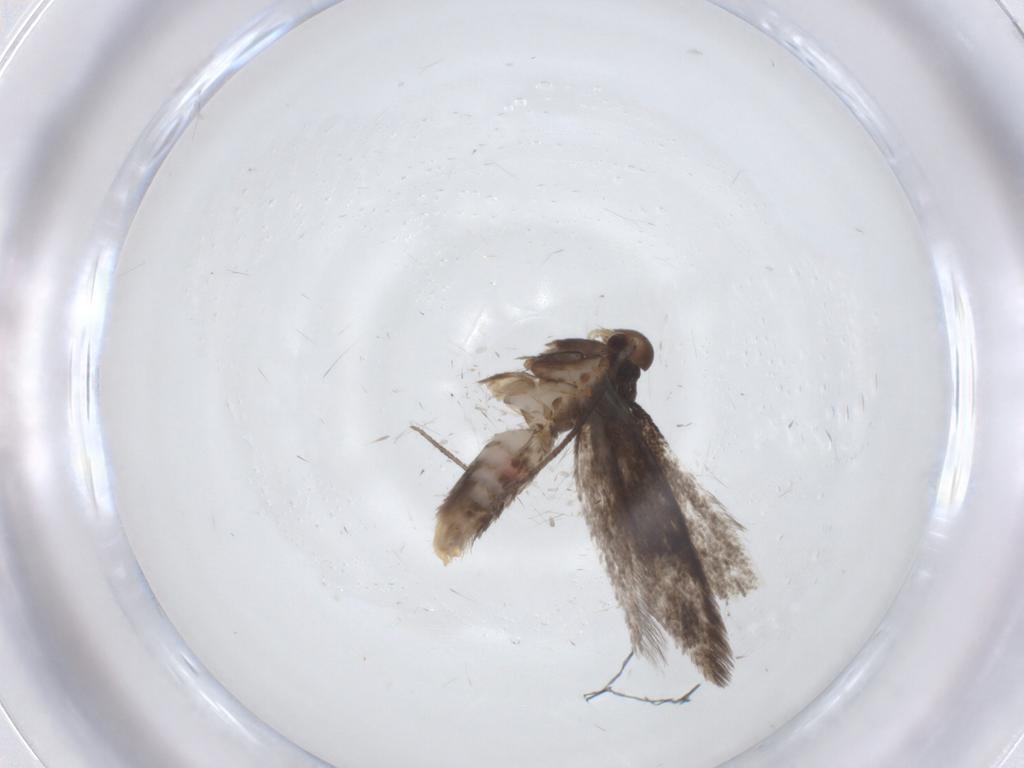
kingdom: Animalia
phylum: Arthropoda
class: Insecta
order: Lepidoptera
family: Elachistidae
